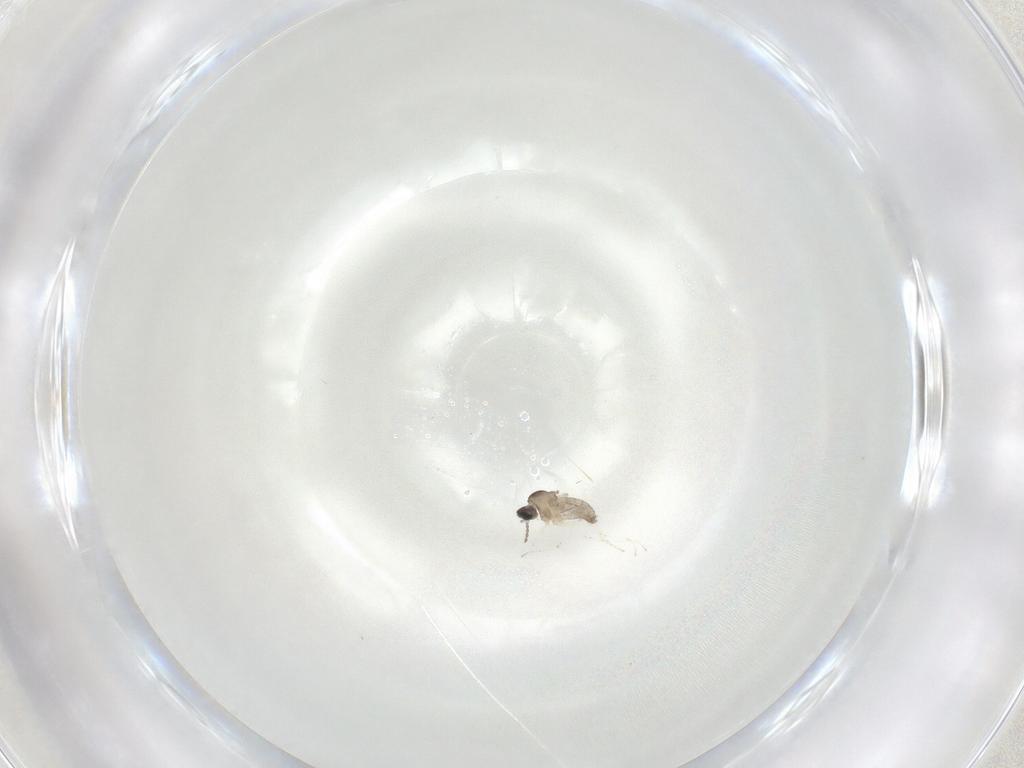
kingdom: Animalia
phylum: Arthropoda
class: Insecta
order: Diptera
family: Cecidomyiidae
